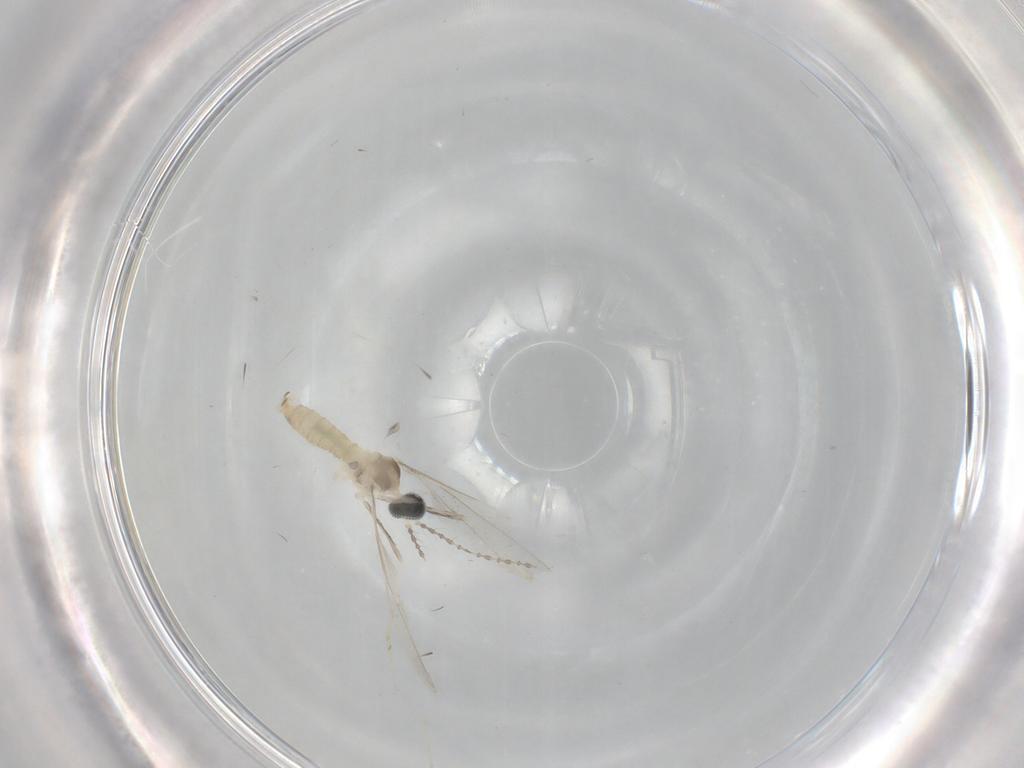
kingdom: Animalia
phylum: Arthropoda
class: Insecta
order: Diptera
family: Cecidomyiidae
